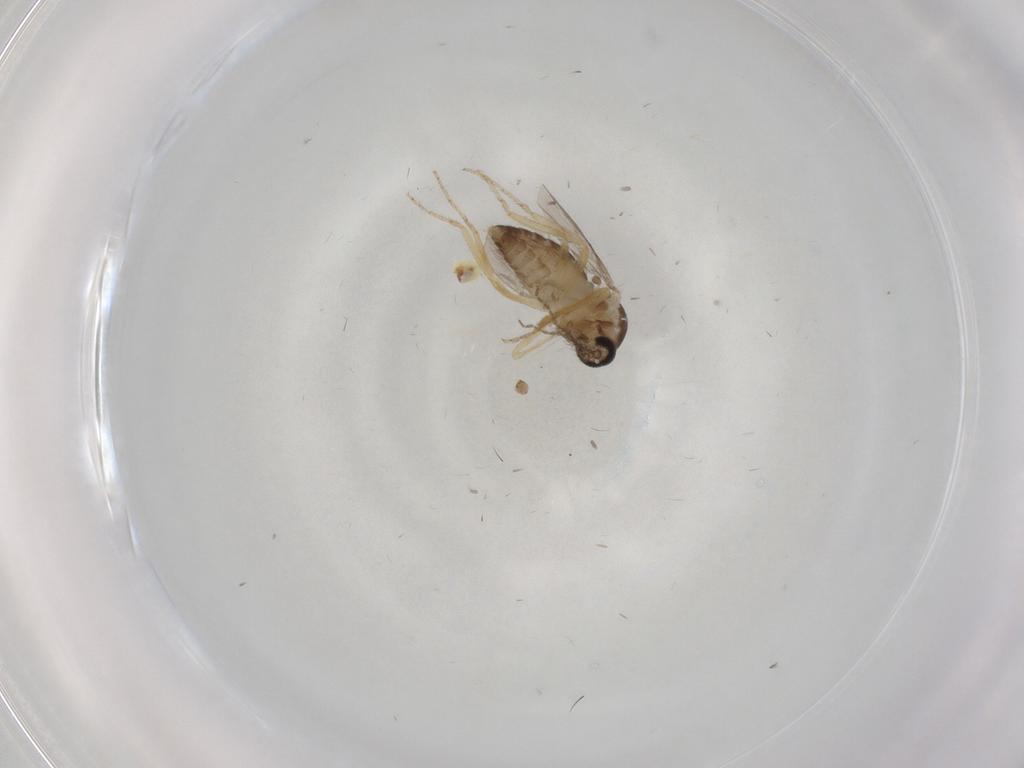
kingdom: Animalia
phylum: Arthropoda
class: Insecta
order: Diptera
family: Ceratopogonidae
